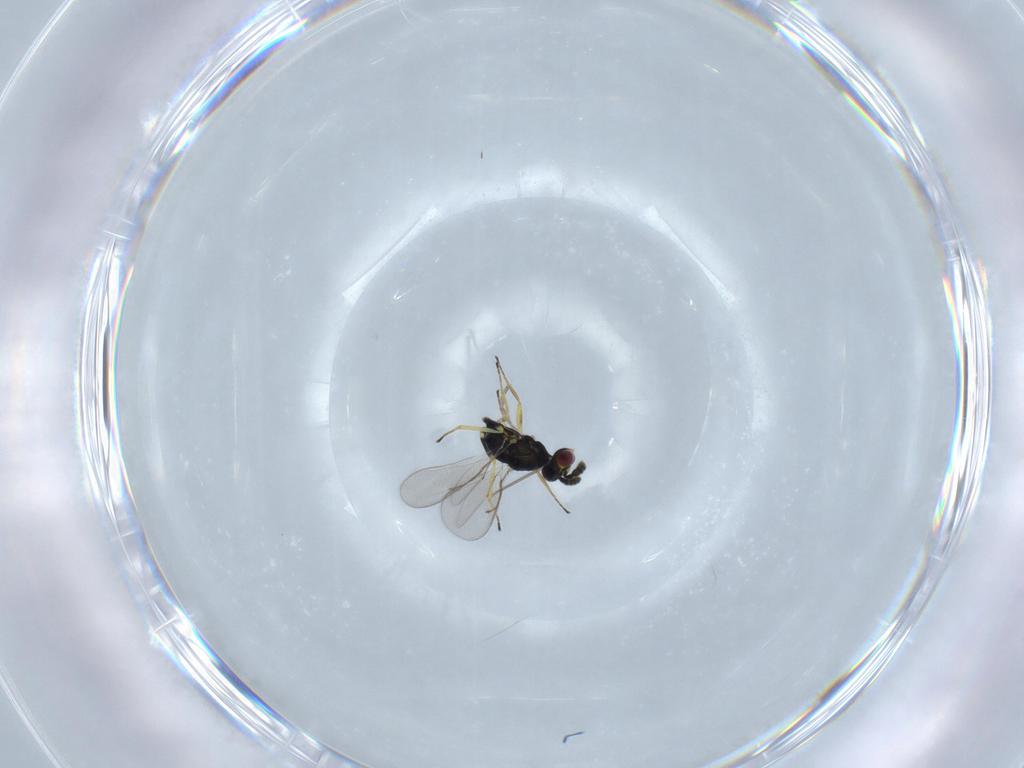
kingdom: Animalia
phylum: Arthropoda
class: Insecta
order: Hymenoptera
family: Eulophidae
